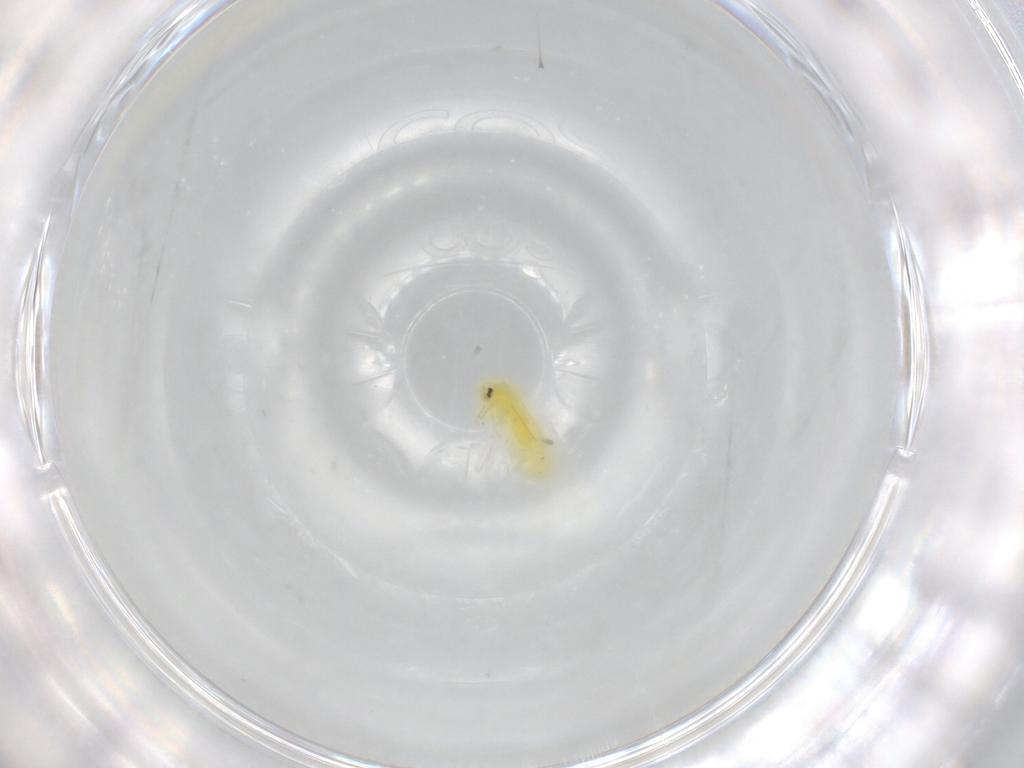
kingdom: Animalia
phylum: Arthropoda
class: Insecta
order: Hemiptera
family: Aleyrodidae
